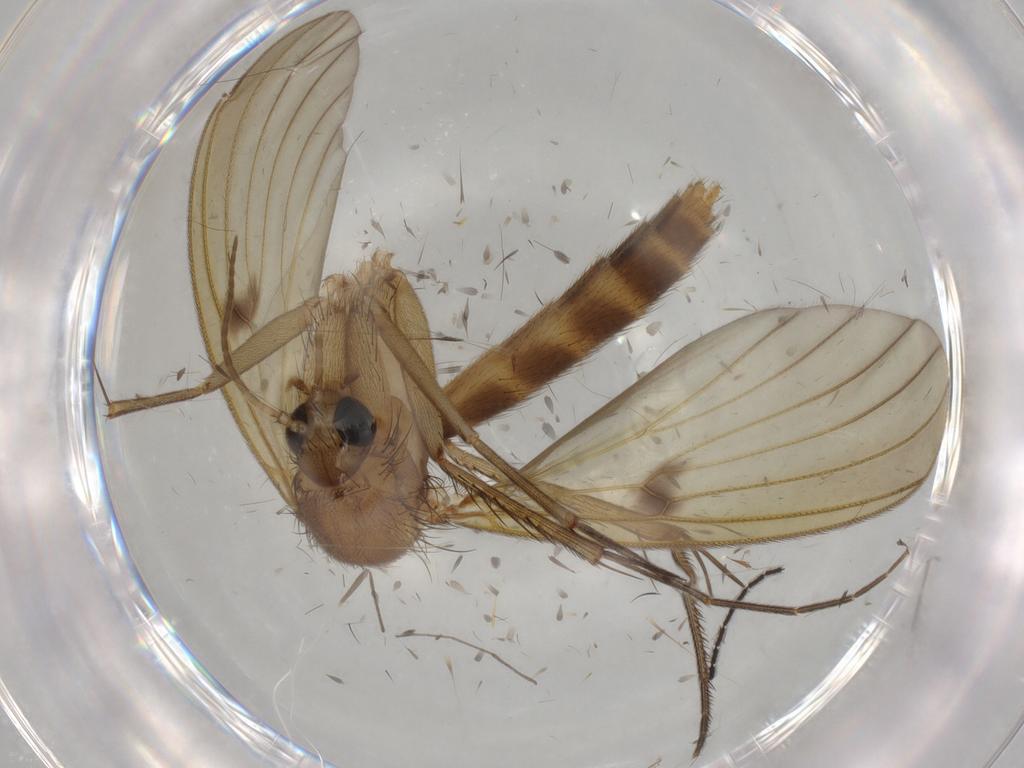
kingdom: Animalia
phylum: Arthropoda
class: Insecta
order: Diptera
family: Mycetophilidae
